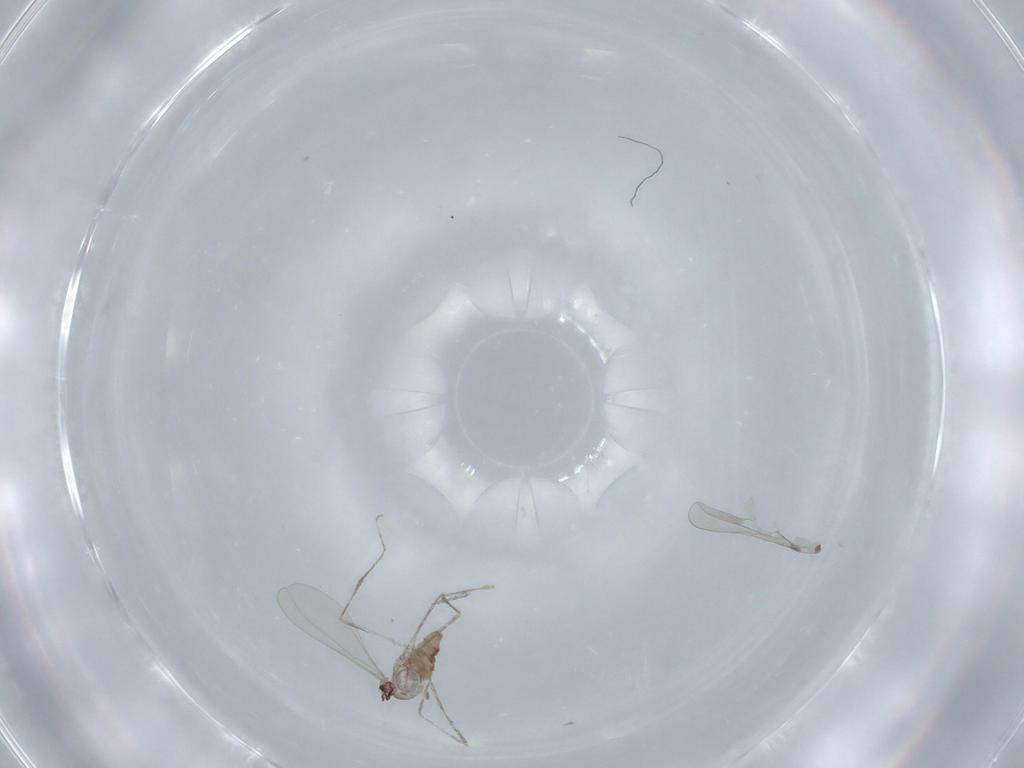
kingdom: Animalia
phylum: Arthropoda
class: Insecta
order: Diptera
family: Cecidomyiidae
